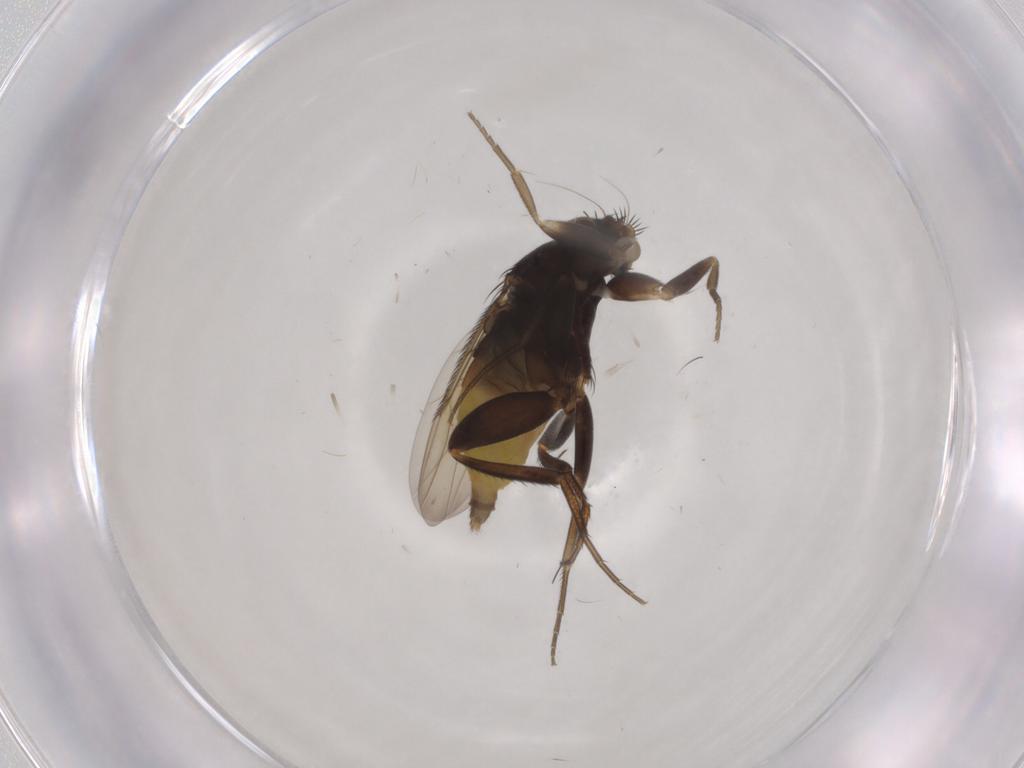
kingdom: Animalia
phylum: Arthropoda
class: Insecta
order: Diptera
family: Phoridae
